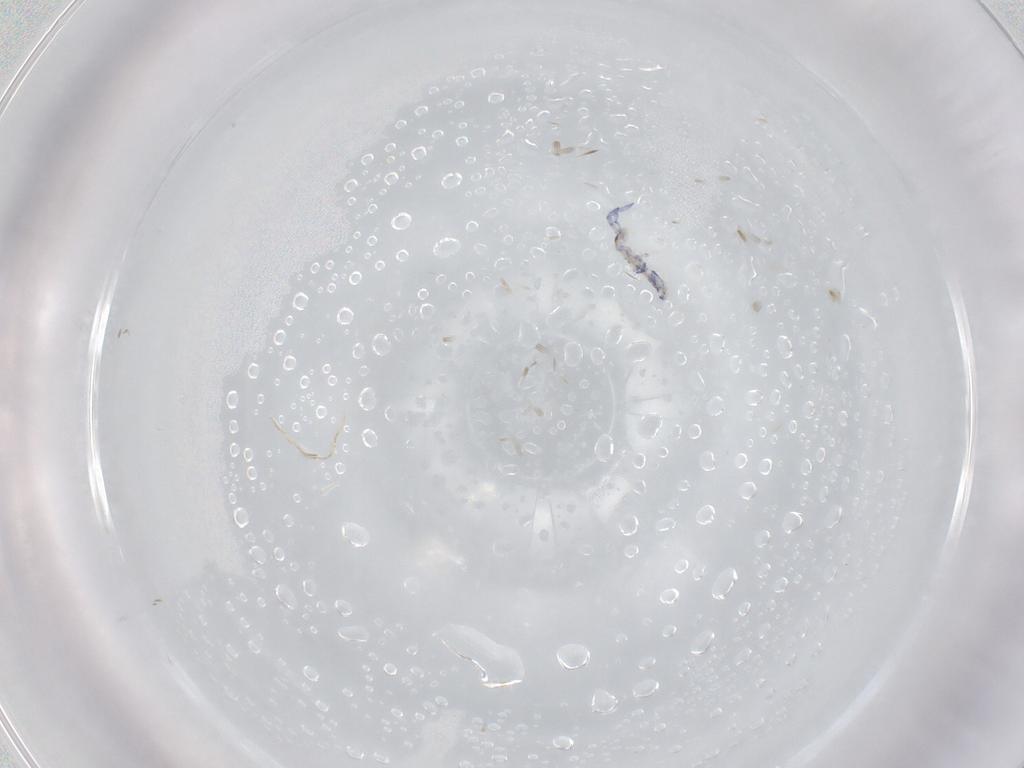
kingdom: Animalia
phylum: Arthropoda
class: Collembola
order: Entomobryomorpha
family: Entomobryidae
